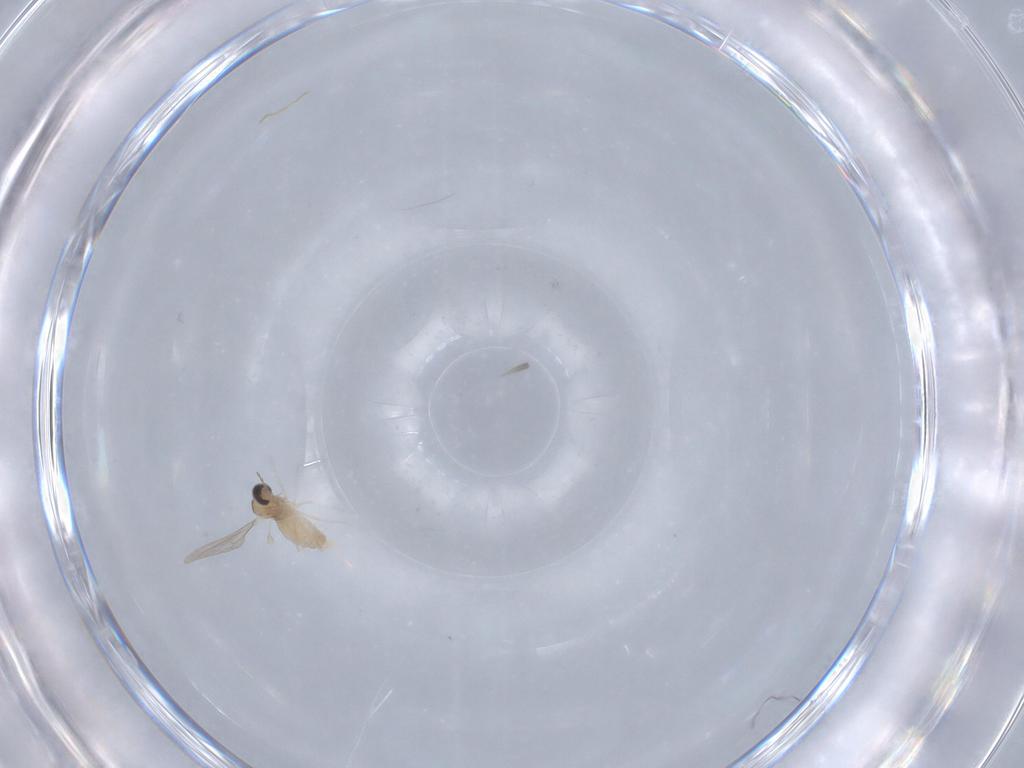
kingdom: Animalia
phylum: Arthropoda
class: Insecta
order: Diptera
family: Cecidomyiidae
